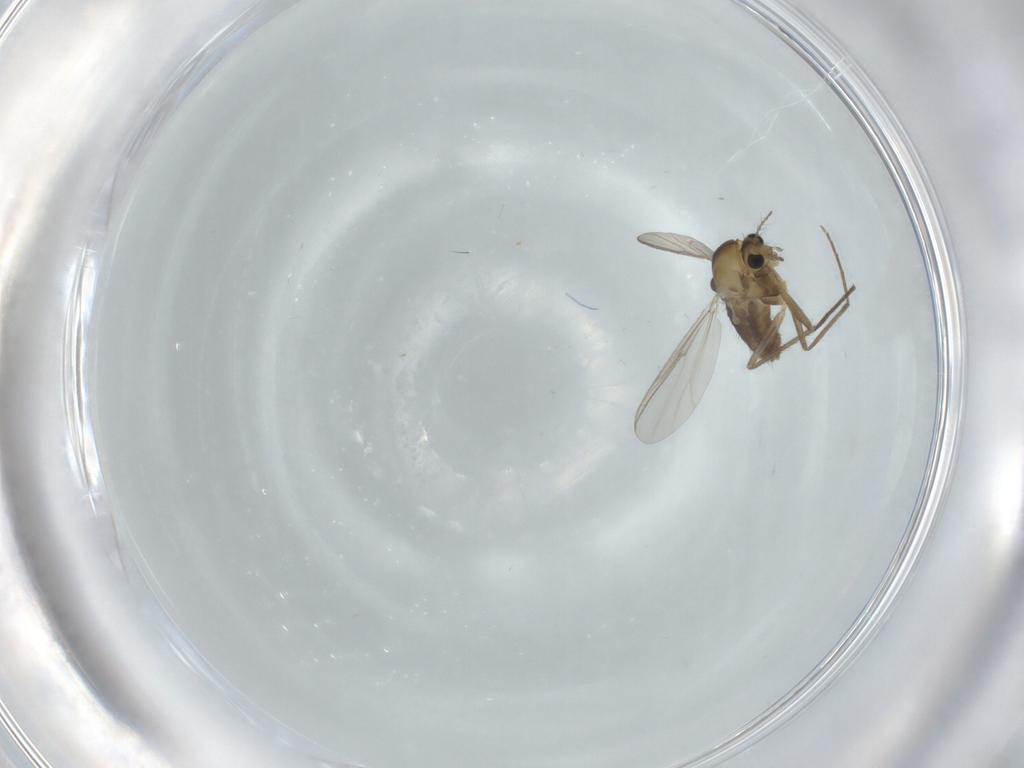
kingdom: Animalia
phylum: Arthropoda
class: Insecta
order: Diptera
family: Chironomidae
